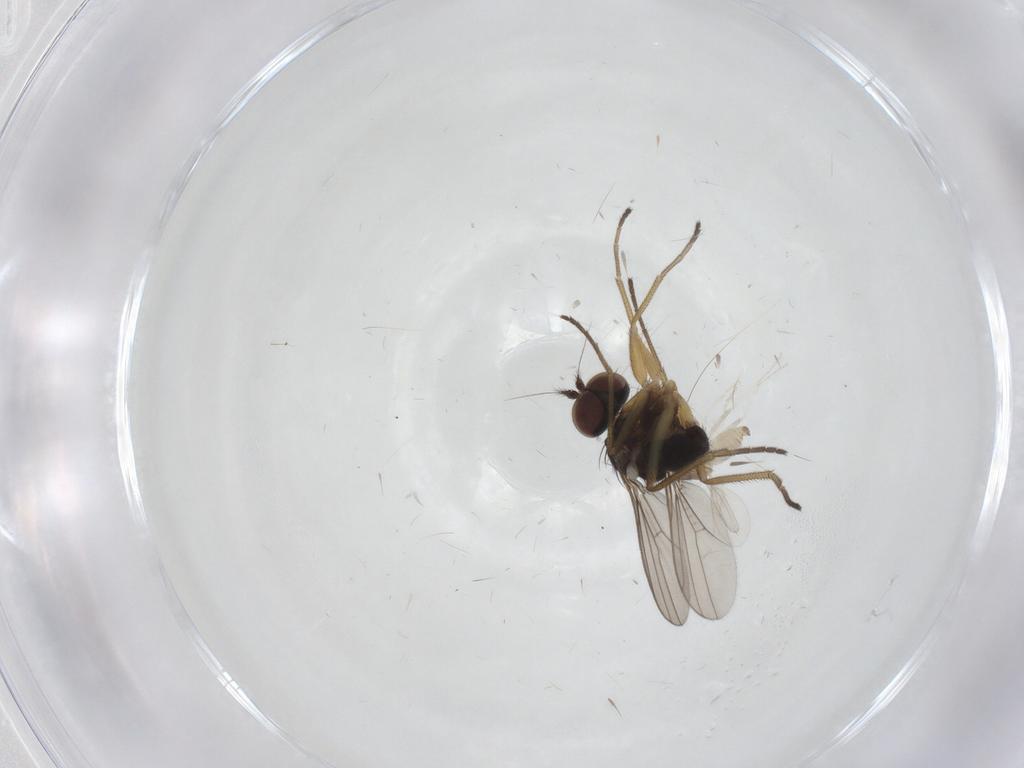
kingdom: Animalia
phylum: Arthropoda
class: Insecta
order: Diptera
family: Dolichopodidae
